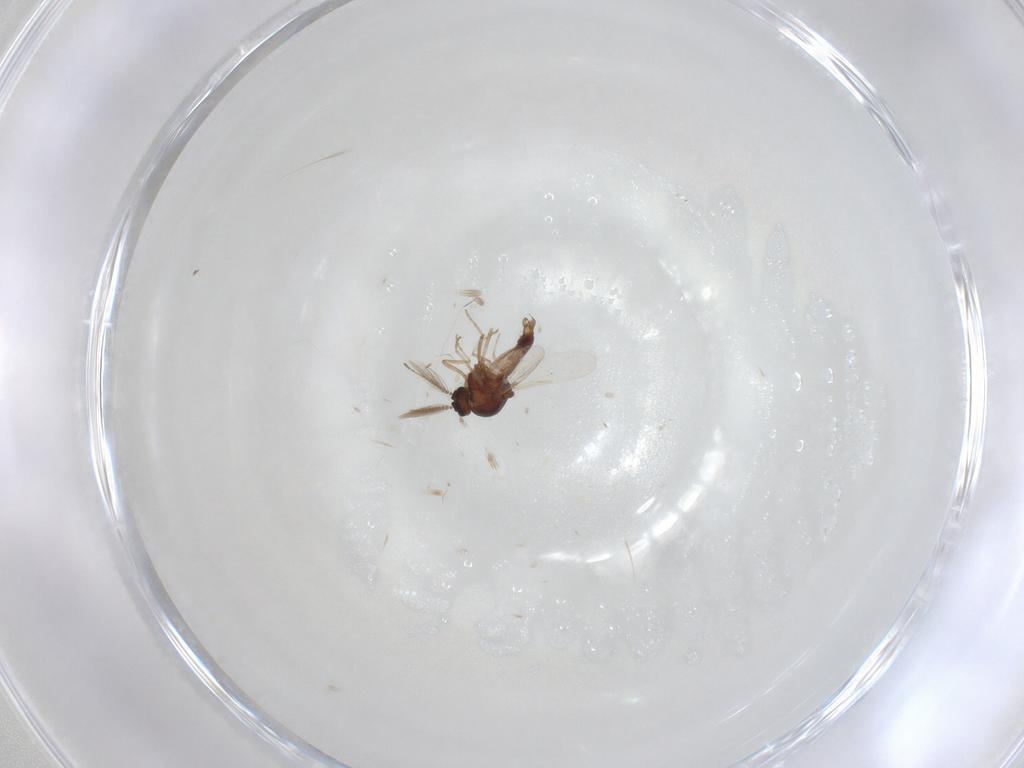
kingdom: Animalia
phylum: Arthropoda
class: Insecta
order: Diptera
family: Ceratopogonidae
